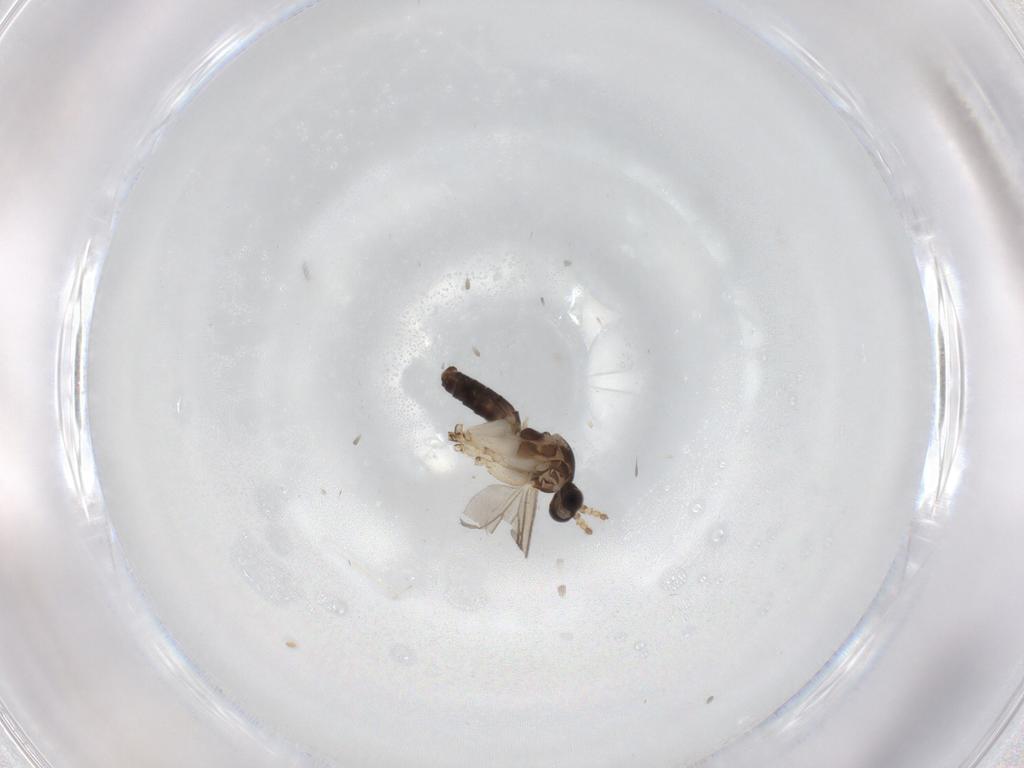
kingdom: Animalia
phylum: Arthropoda
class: Insecta
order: Diptera
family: Mycetophilidae
